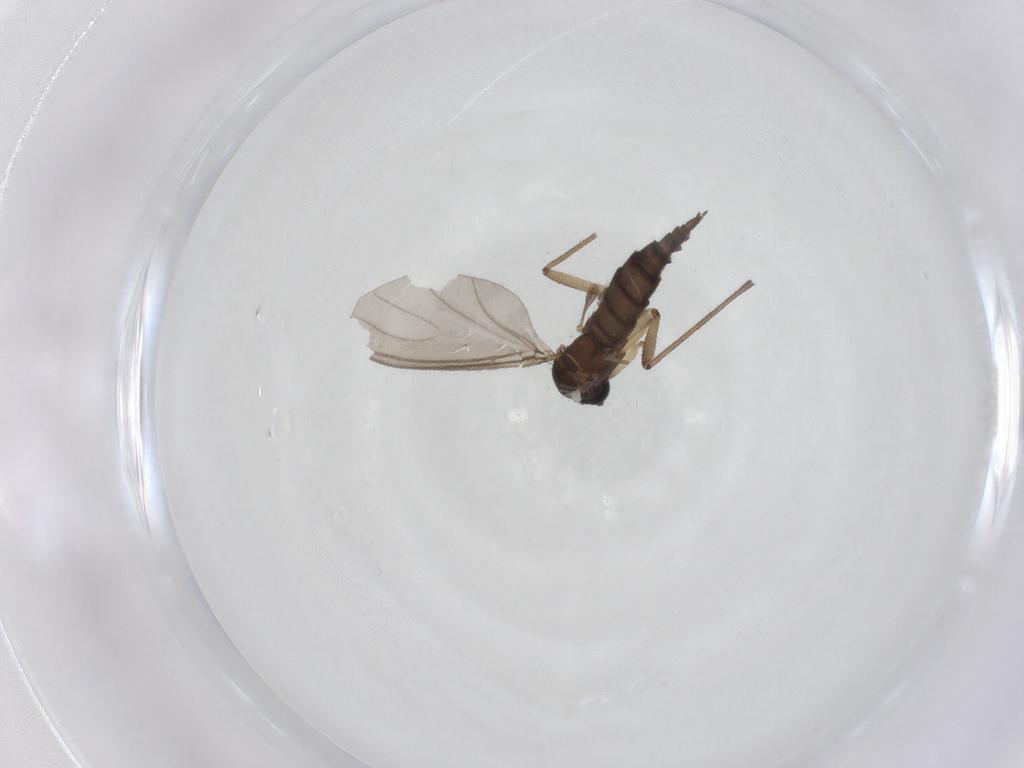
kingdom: Animalia
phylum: Arthropoda
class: Insecta
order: Diptera
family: Sciaridae
